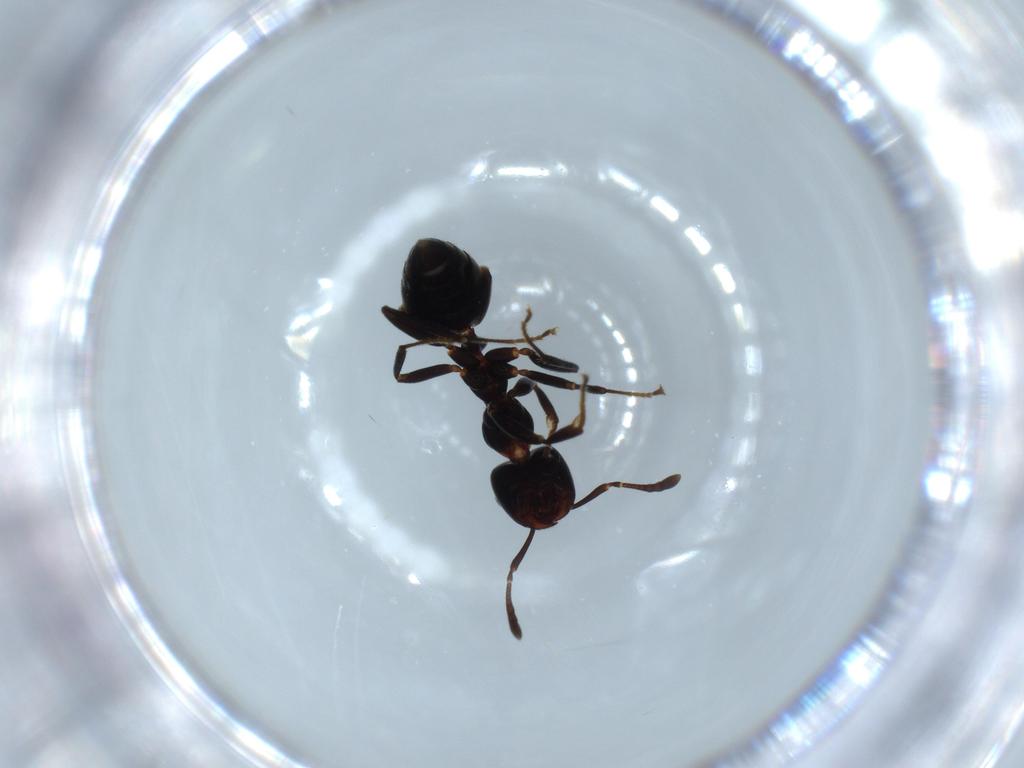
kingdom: Animalia
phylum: Arthropoda
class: Insecta
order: Hymenoptera
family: Formicidae
